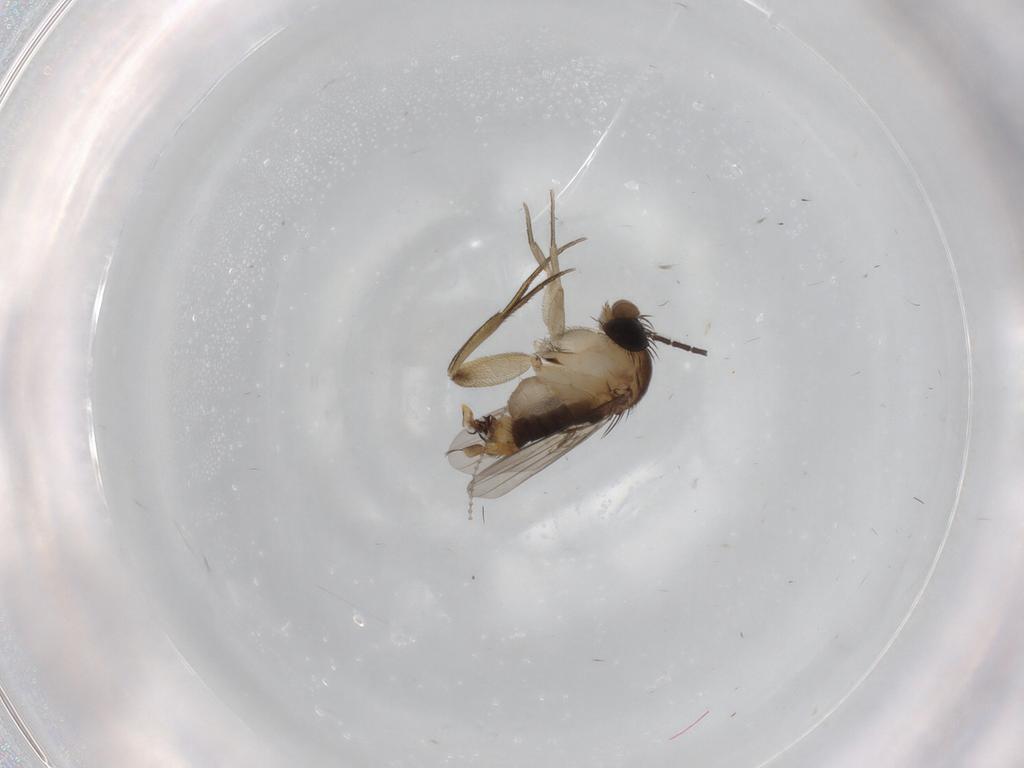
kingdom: Animalia
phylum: Arthropoda
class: Insecta
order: Diptera
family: Phoridae
